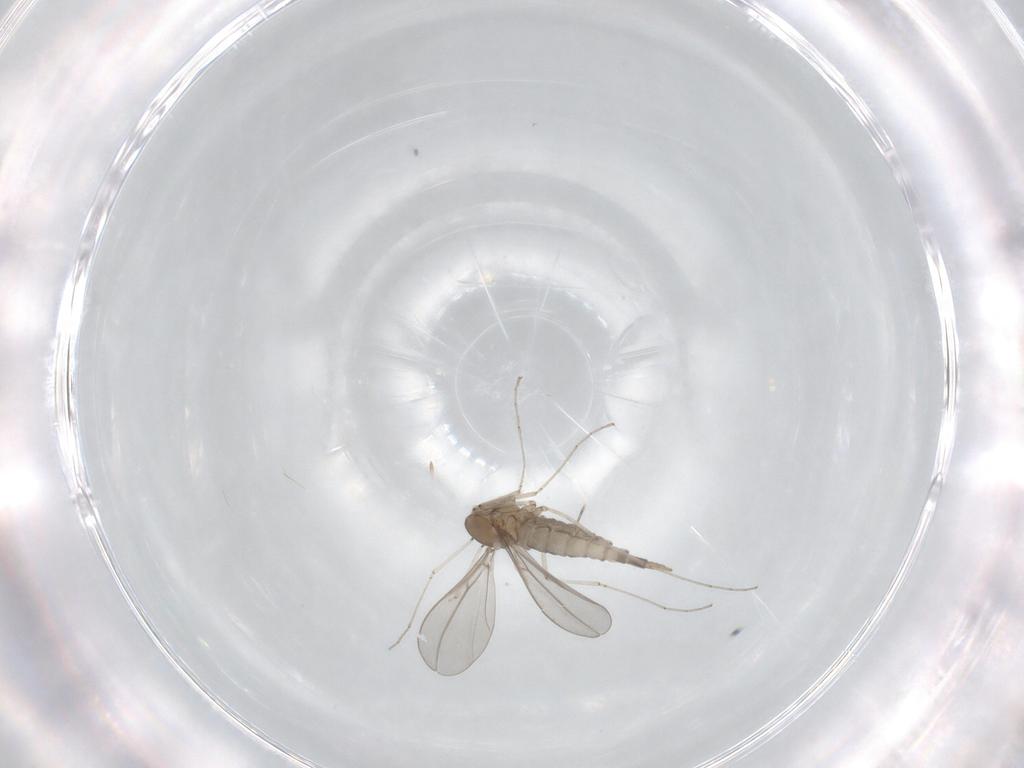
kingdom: Animalia
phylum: Arthropoda
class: Insecta
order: Diptera
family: Cecidomyiidae
